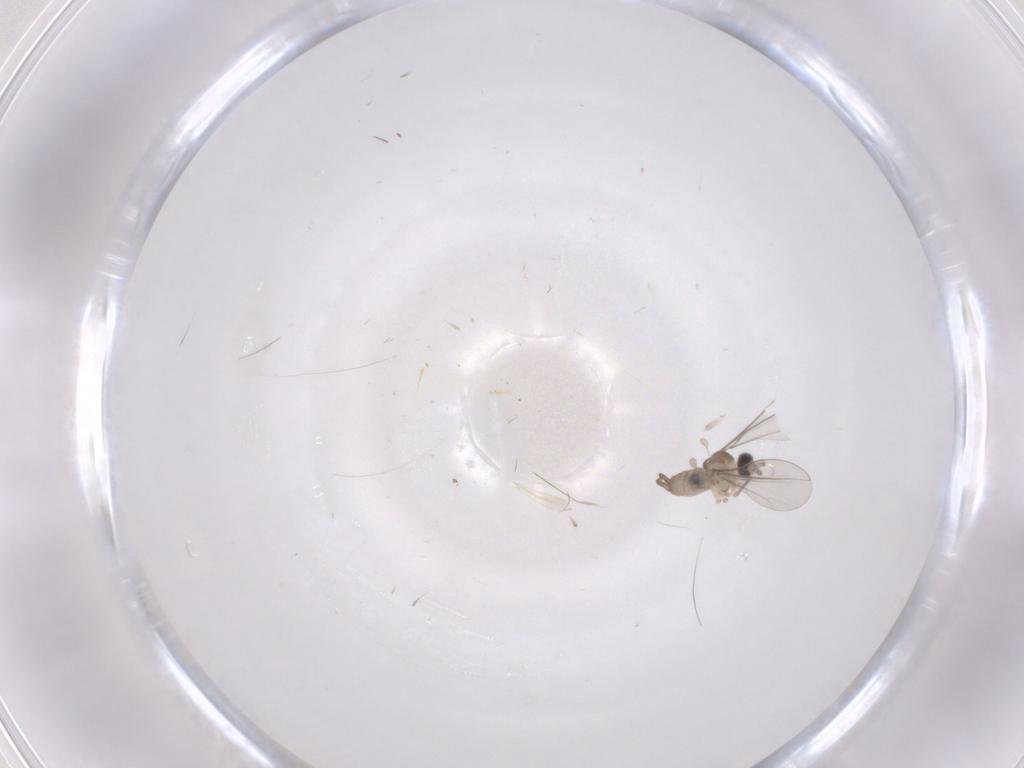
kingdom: Animalia
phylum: Arthropoda
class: Insecta
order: Diptera
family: Cecidomyiidae
